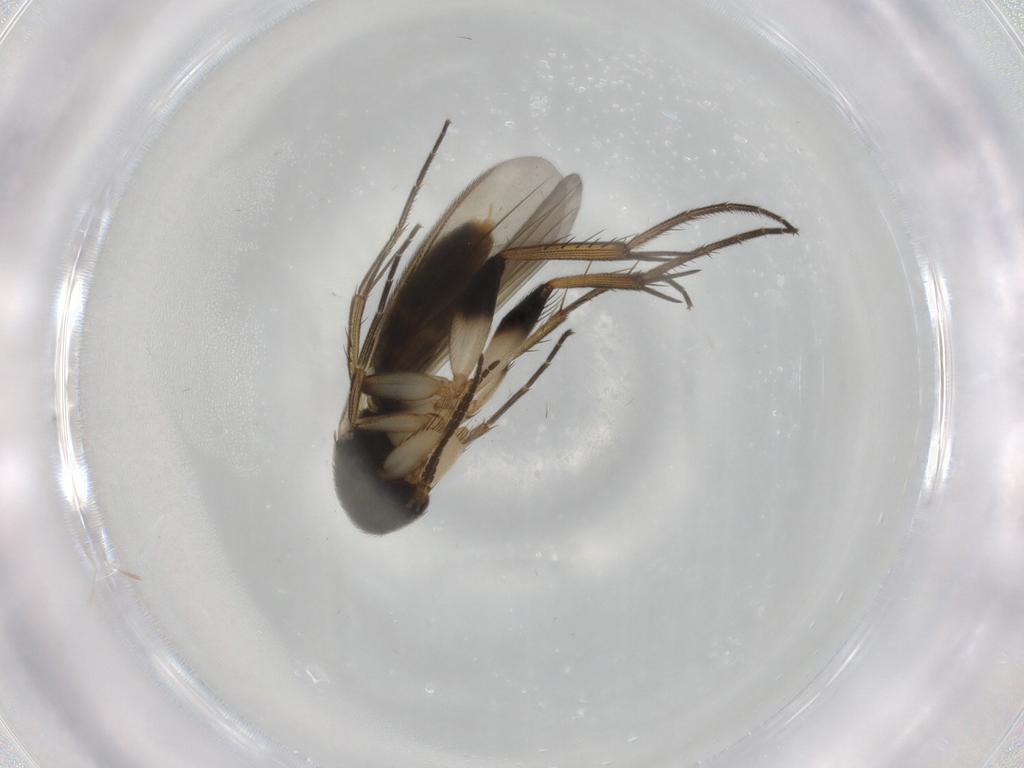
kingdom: Animalia
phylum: Arthropoda
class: Insecta
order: Diptera
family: Mycetophilidae
